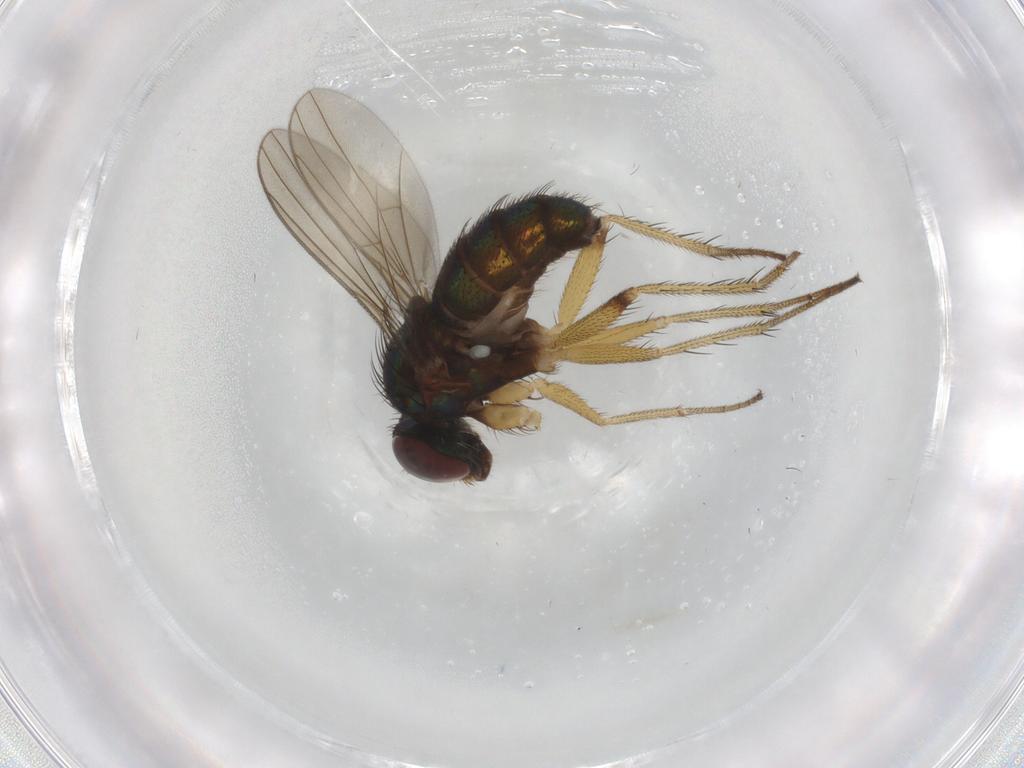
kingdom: Animalia
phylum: Arthropoda
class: Insecta
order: Diptera
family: Dolichopodidae
